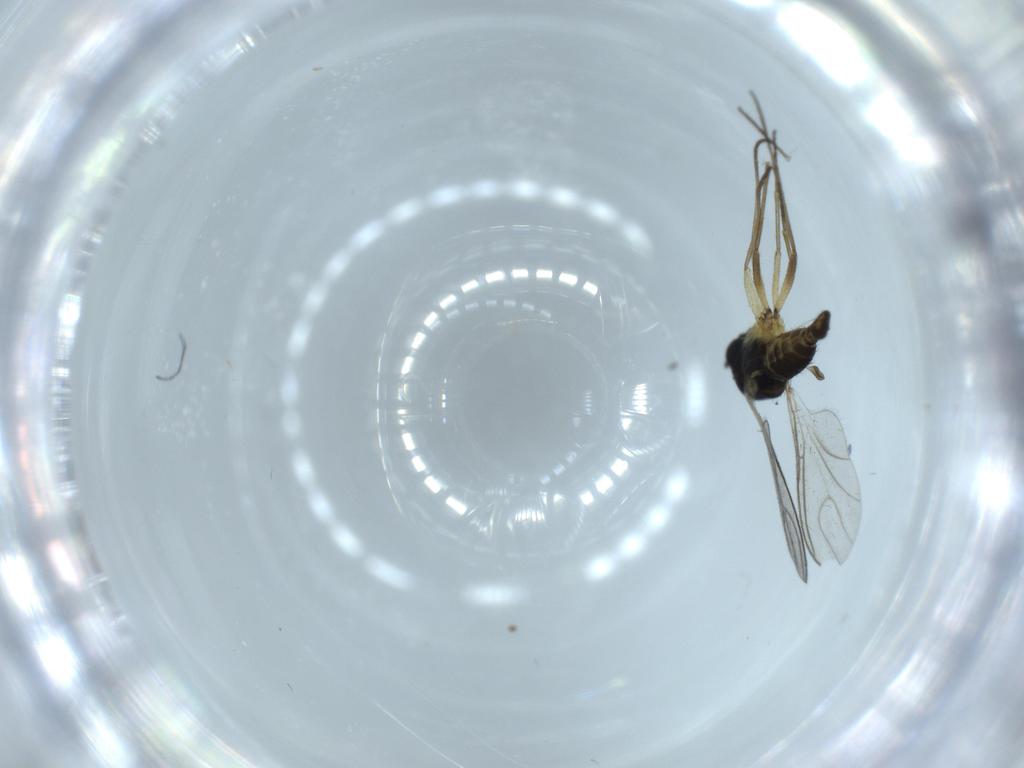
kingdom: Animalia
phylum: Arthropoda
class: Insecta
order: Diptera
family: Sciaridae
